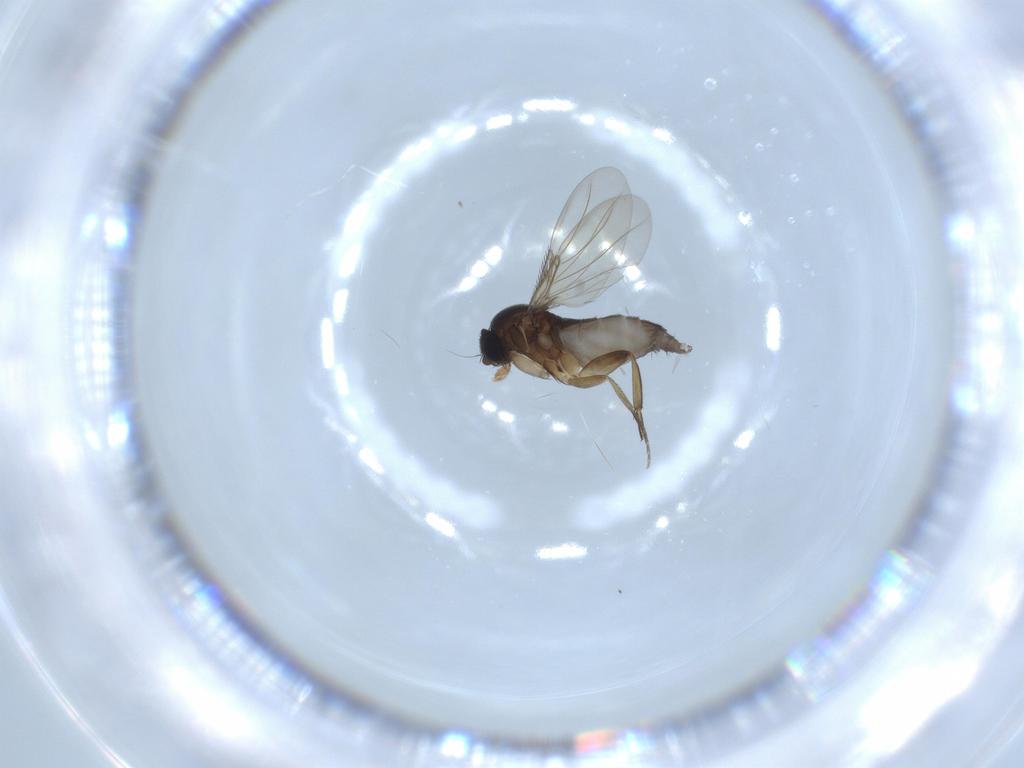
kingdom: Animalia
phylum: Arthropoda
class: Insecta
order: Diptera
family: Phoridae
